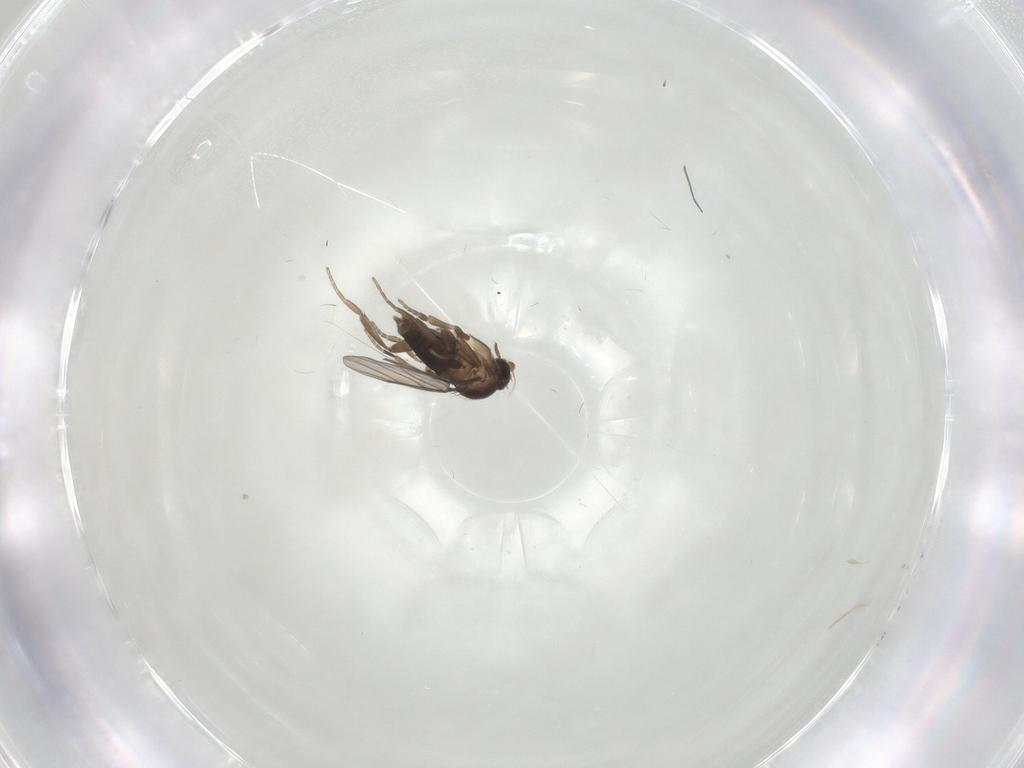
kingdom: Animalia
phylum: Arthropoda
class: Insecta
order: Diptera
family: Phoridae
